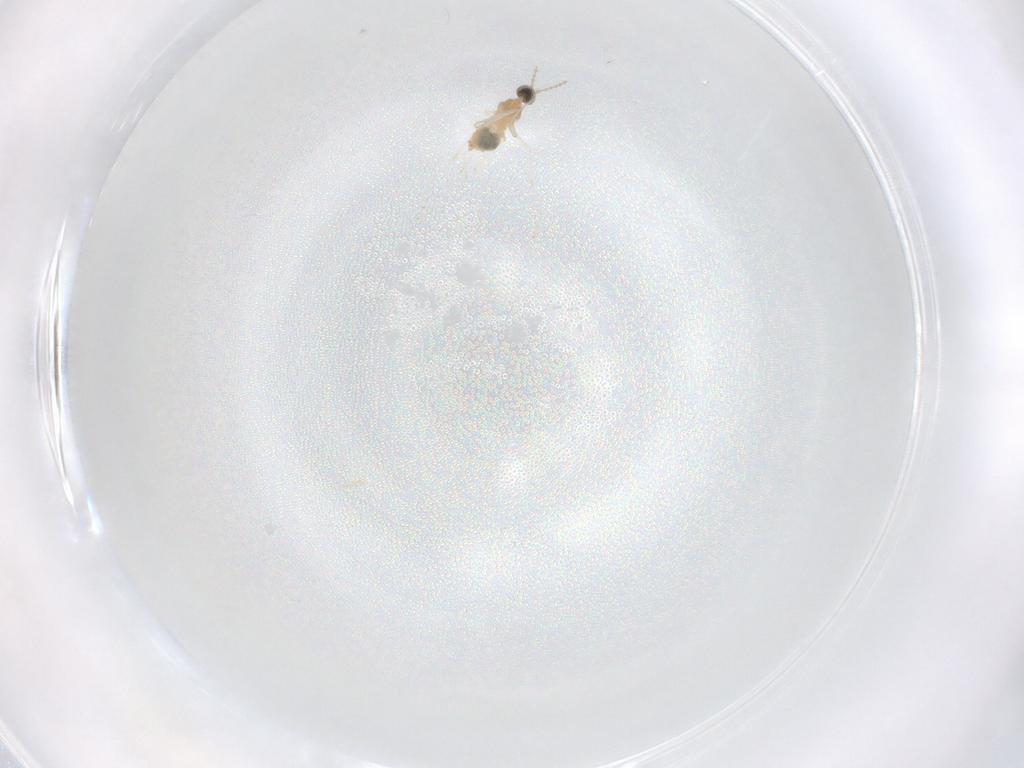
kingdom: Animalia
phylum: Arthropoda
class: Insecta
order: Diptera
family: Cecidomyiidae
